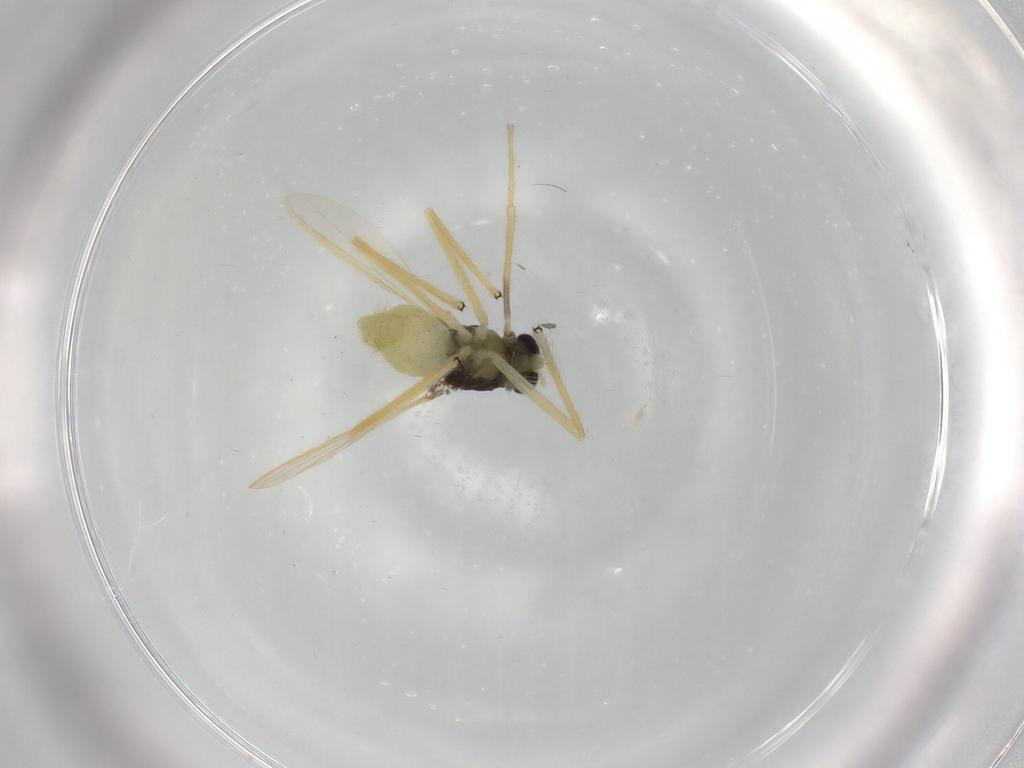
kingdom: Animalia
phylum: Arthropoda
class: Insecta
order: Diptera
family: Chironomidae
